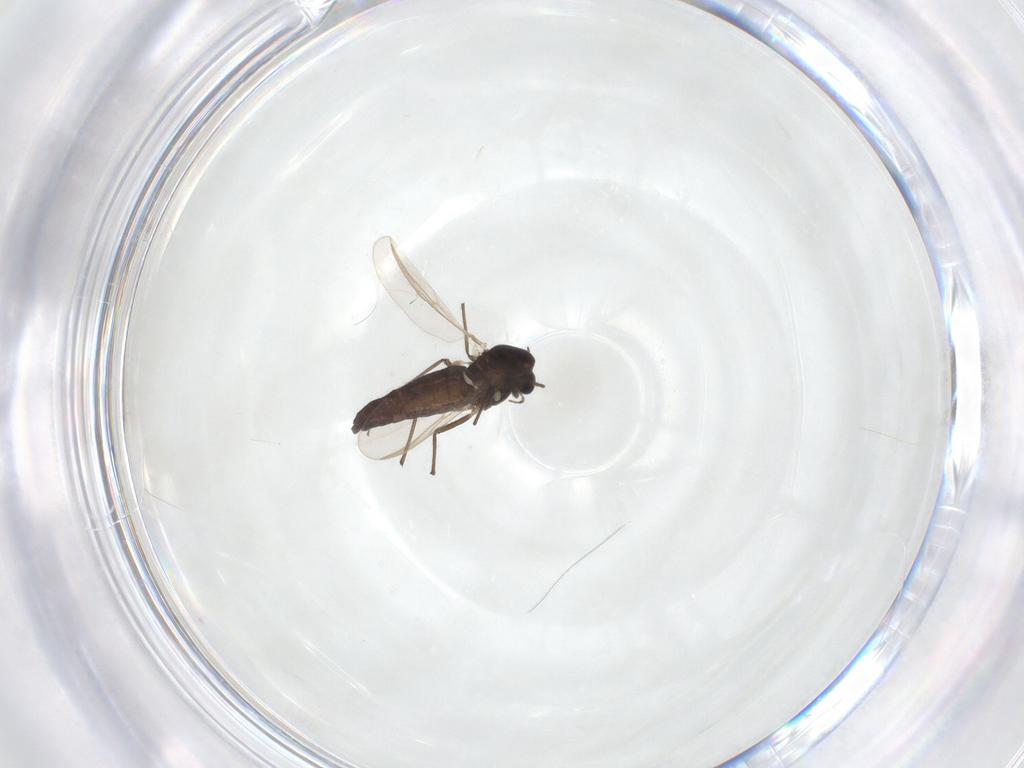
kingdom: Animalia
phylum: Arthropoda
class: Insecta
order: Diptera
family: Chironomidae
